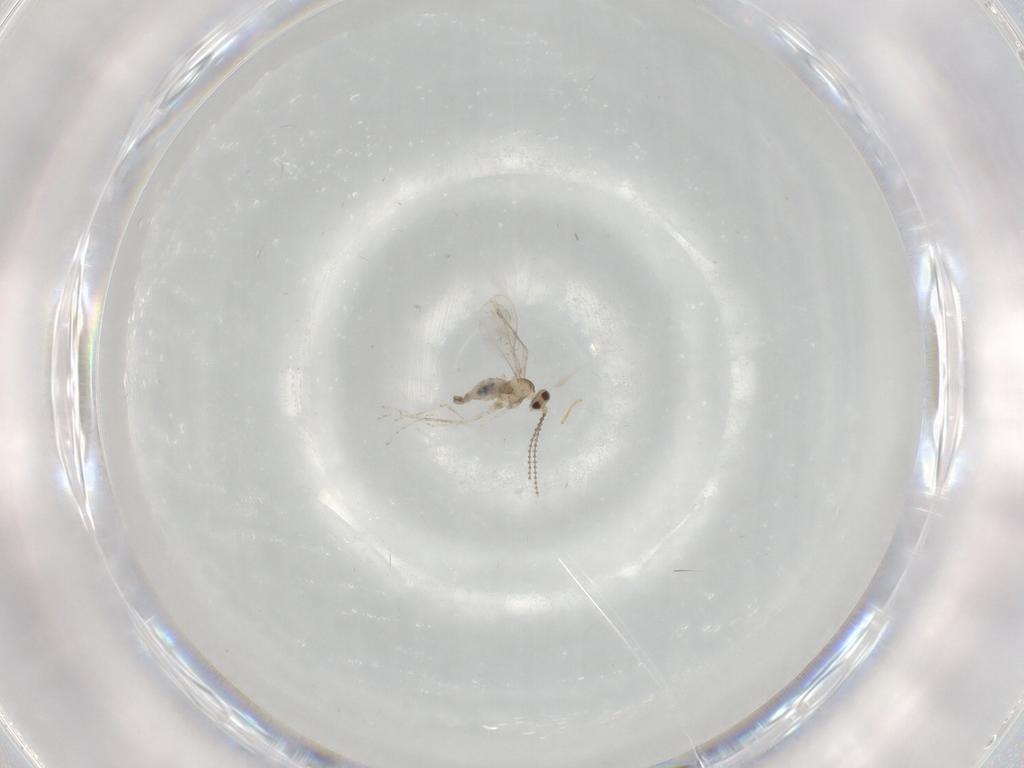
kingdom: Animalia
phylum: Arthropoda
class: Insecta
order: Diptera
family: Cecidomyiidae
